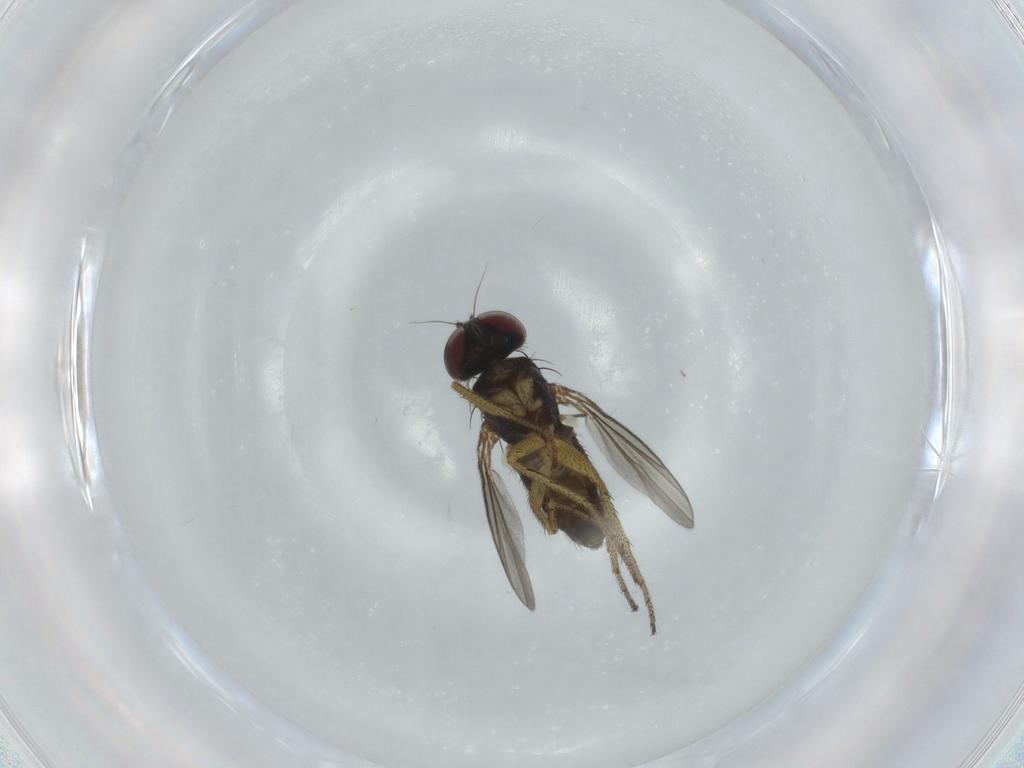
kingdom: Animalia
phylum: Arthropoda
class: Insecta
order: Diptera
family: Dolichopodidae
